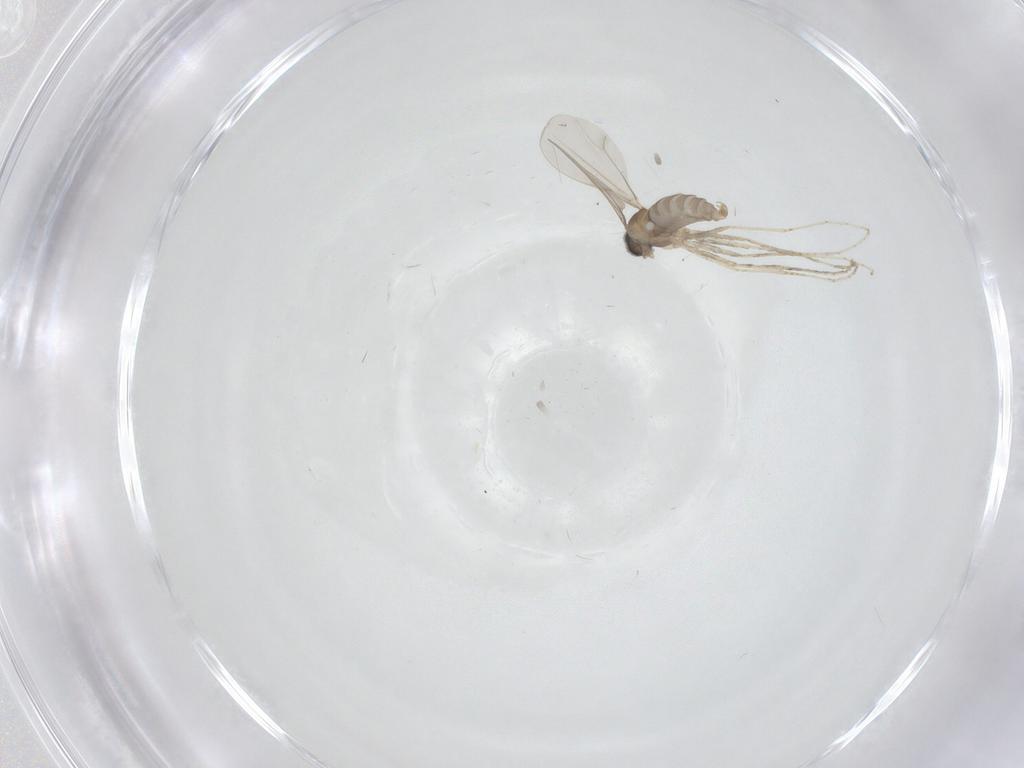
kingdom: Animalia
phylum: Arthropoda
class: Insecta
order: Diptera
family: Cecidomyiidae
